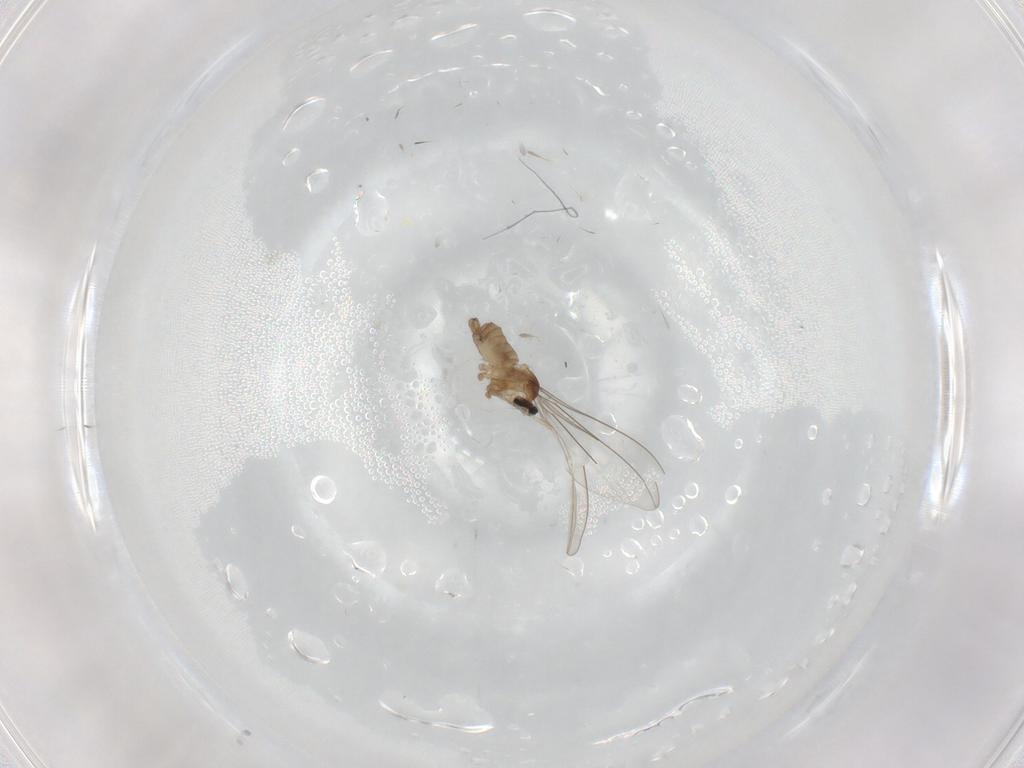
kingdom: Animalia
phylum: Arthropoda
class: Insecta
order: Diptera
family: Cecidomyiidae
